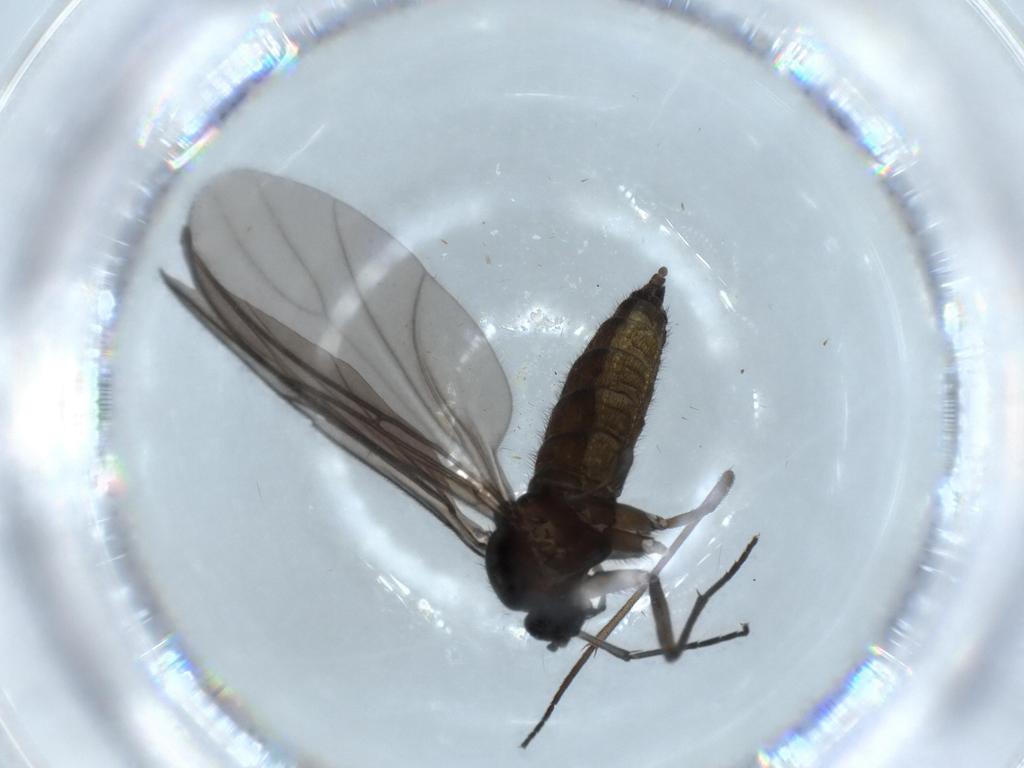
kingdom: Animalia
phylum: Arthropoda
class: Insecta
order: Diptera
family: Sciaridae
